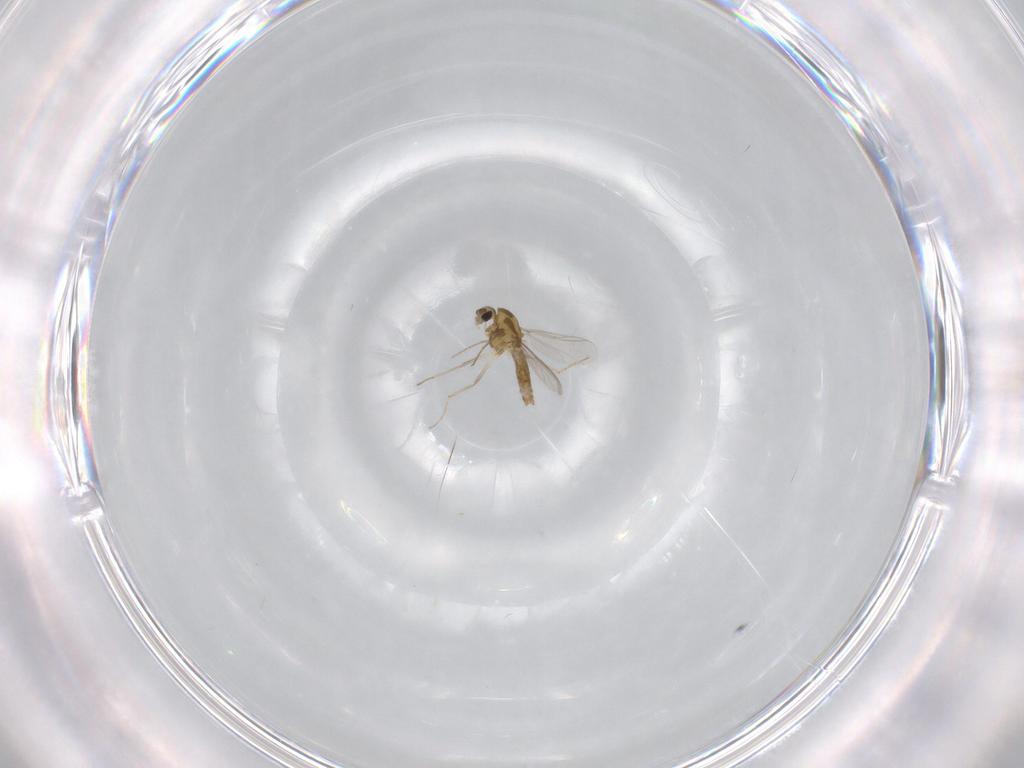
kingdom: Animalia
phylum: Arthropoda
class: Insecta
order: Diptera
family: Chironomidae
